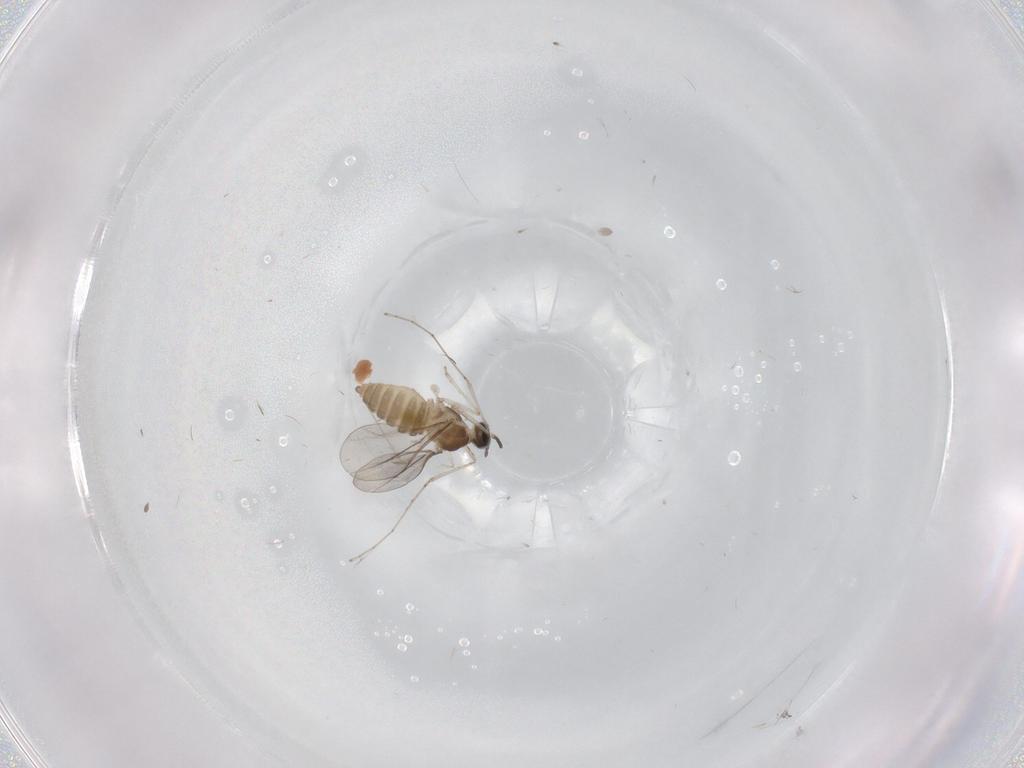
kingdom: Animalia
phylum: Arthropoda
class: Insecta
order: Diptera
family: Cecidomyiidae
